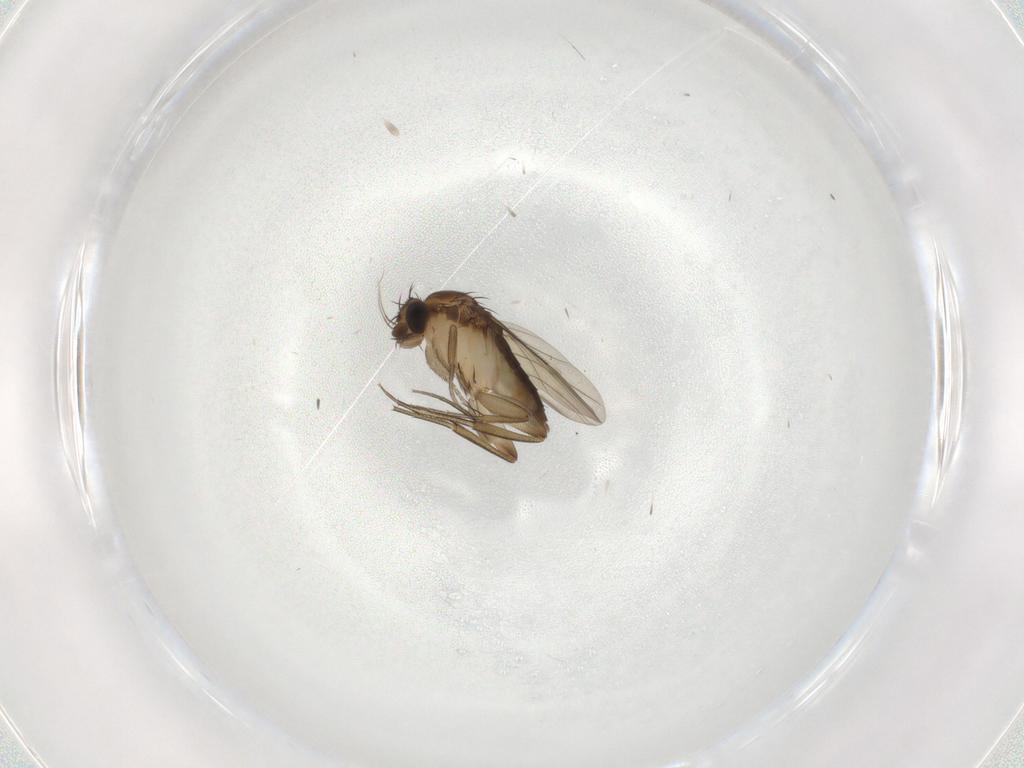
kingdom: Animalia
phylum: Arthropoda
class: Insecta
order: Diptera
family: Phoridae
